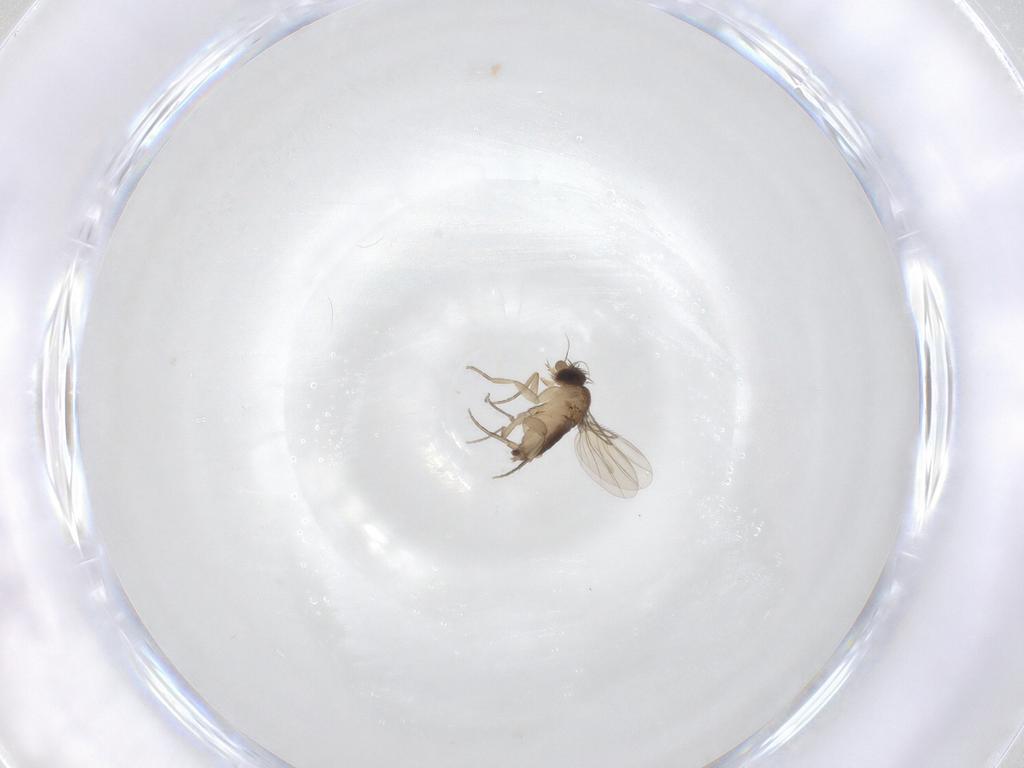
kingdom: Animalia
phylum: Arthropoda
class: Insecta
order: Diptera
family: Phoridae
